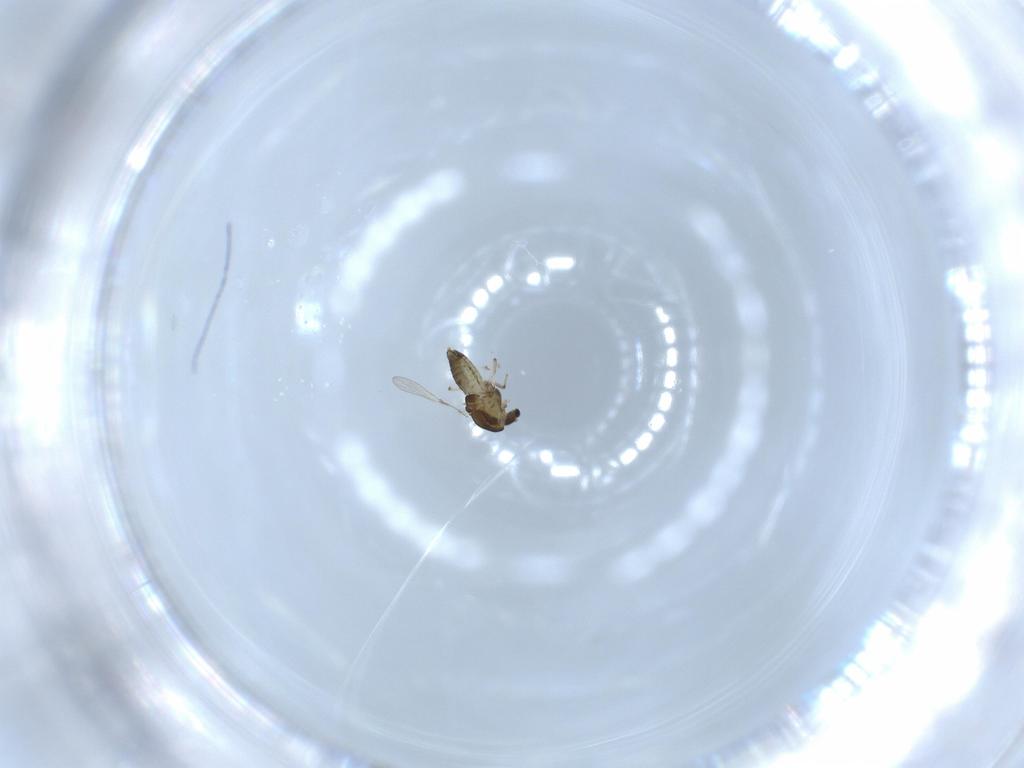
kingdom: Animalia
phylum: Arthropoda
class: Insecta
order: Diptera
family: Chironomidae
